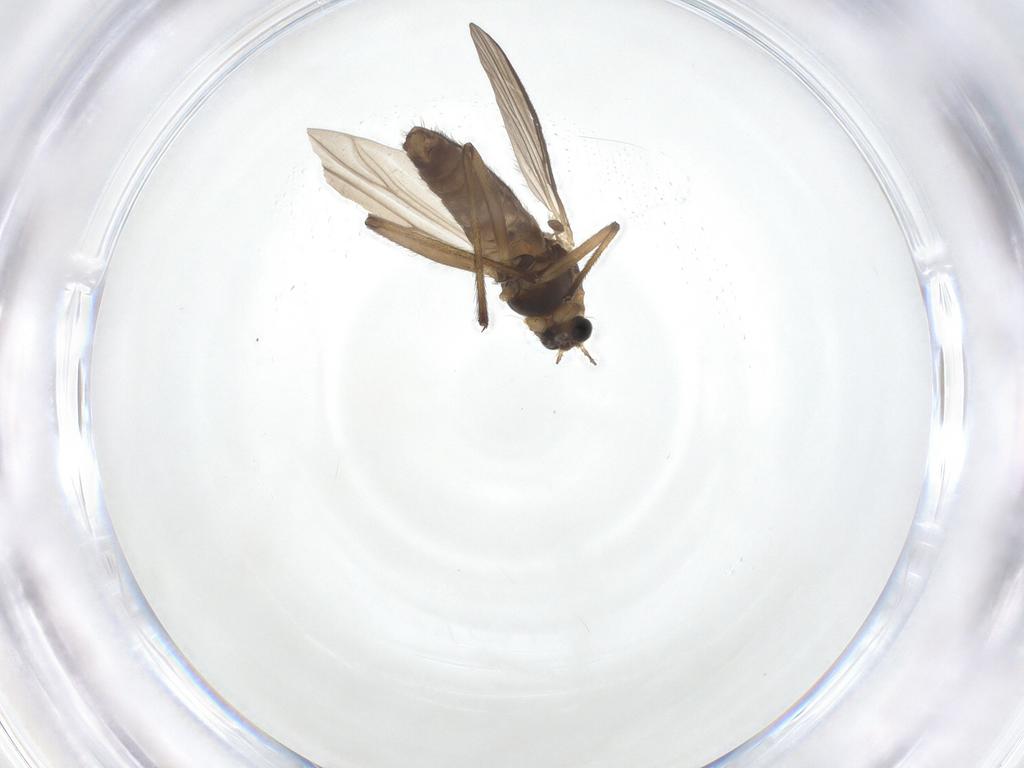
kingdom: Animalia
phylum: Arthropoda
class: Insecta
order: Diptera
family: Chironomidae
